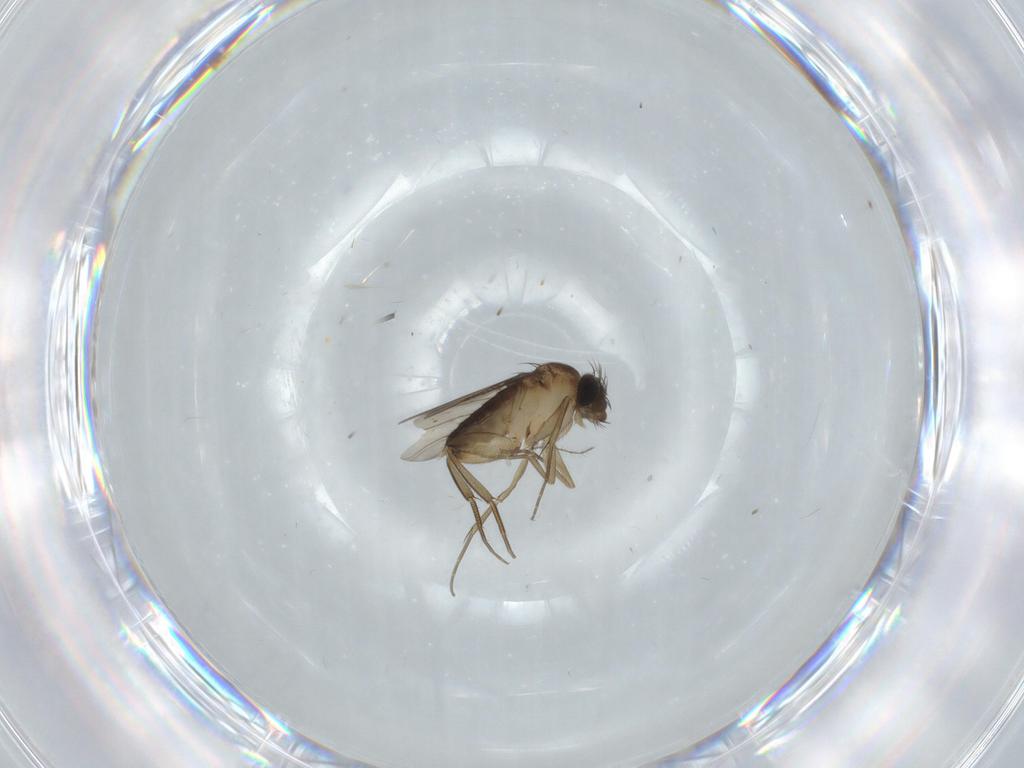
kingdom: Animalia
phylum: Arthropoda
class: Insecta
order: Diptera
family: Phoridae
